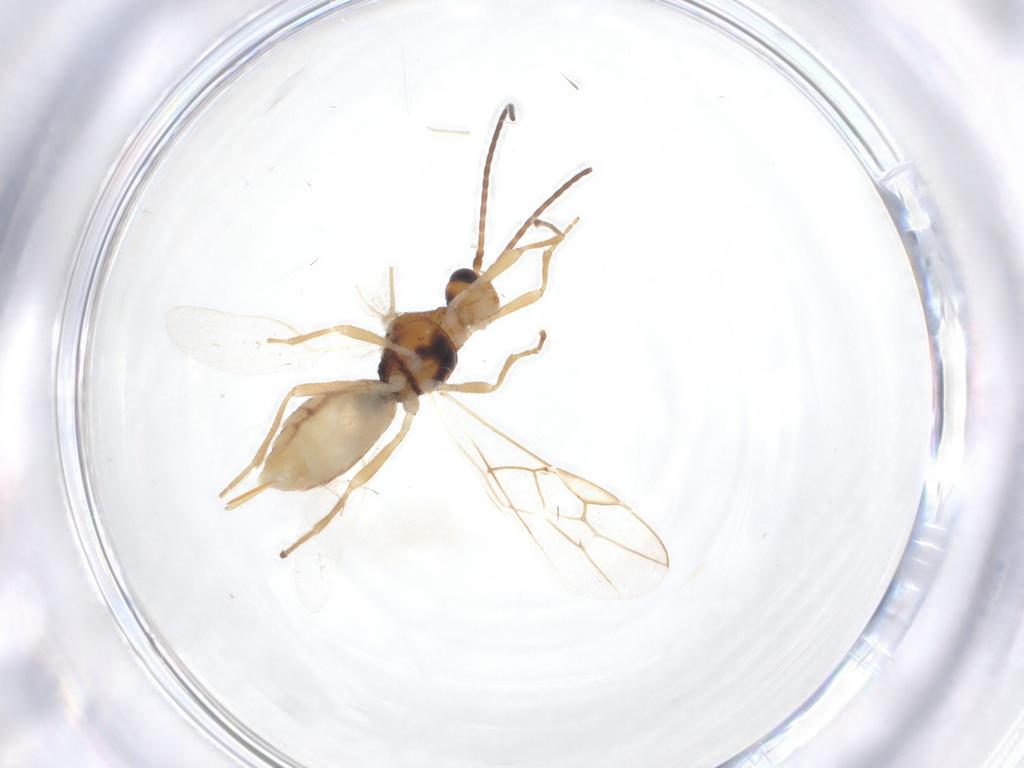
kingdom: Animalia
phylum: Arthropoda
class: Insecta
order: Hymenoptera
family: Braconidae
